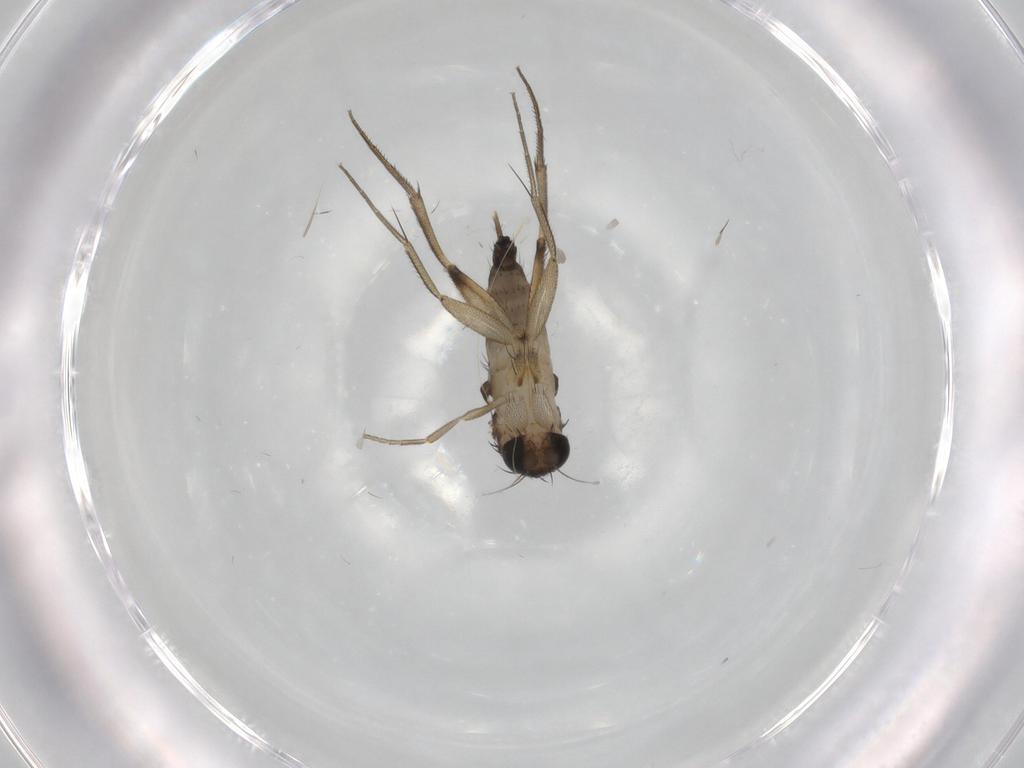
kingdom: Animalia
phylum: Arthropoda
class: Insecta
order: Diptera
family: Phoridae
